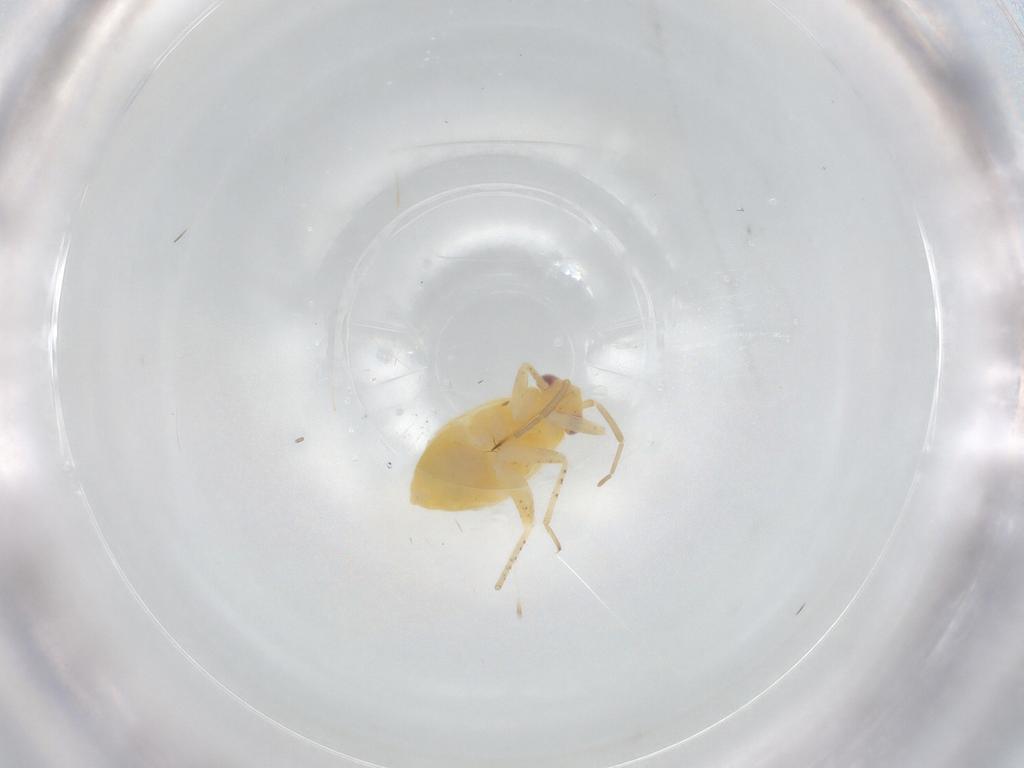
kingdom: Animalia
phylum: Arthropoda
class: Insecta
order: Hemiptera
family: Miridae
